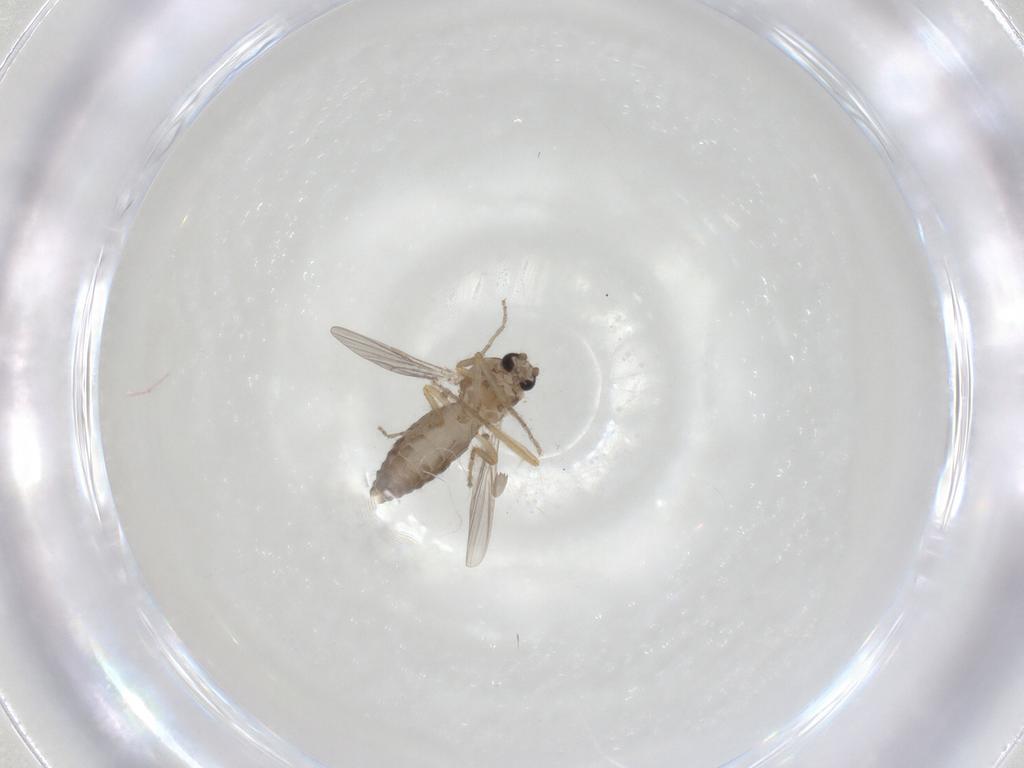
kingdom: Animalia
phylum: Arthropoda
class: Insecta
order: Diptera
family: Ceratopogonidae
